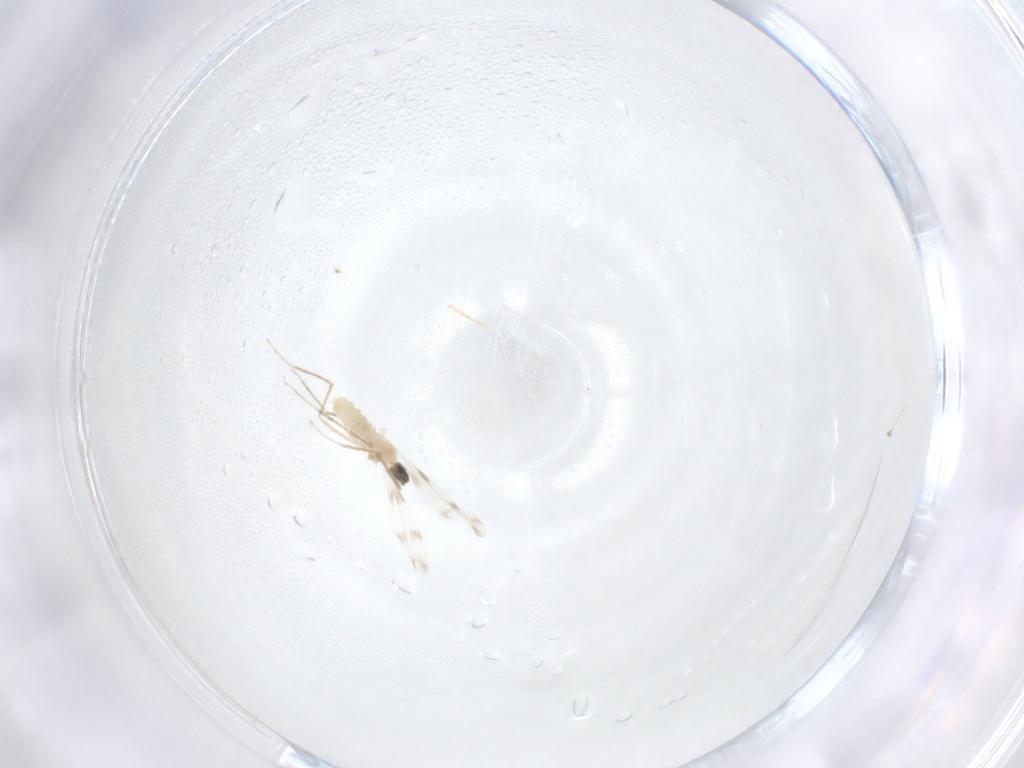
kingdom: Animalia
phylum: Arthropoda
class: Insecta
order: Diptera
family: Cecidomyiidae
